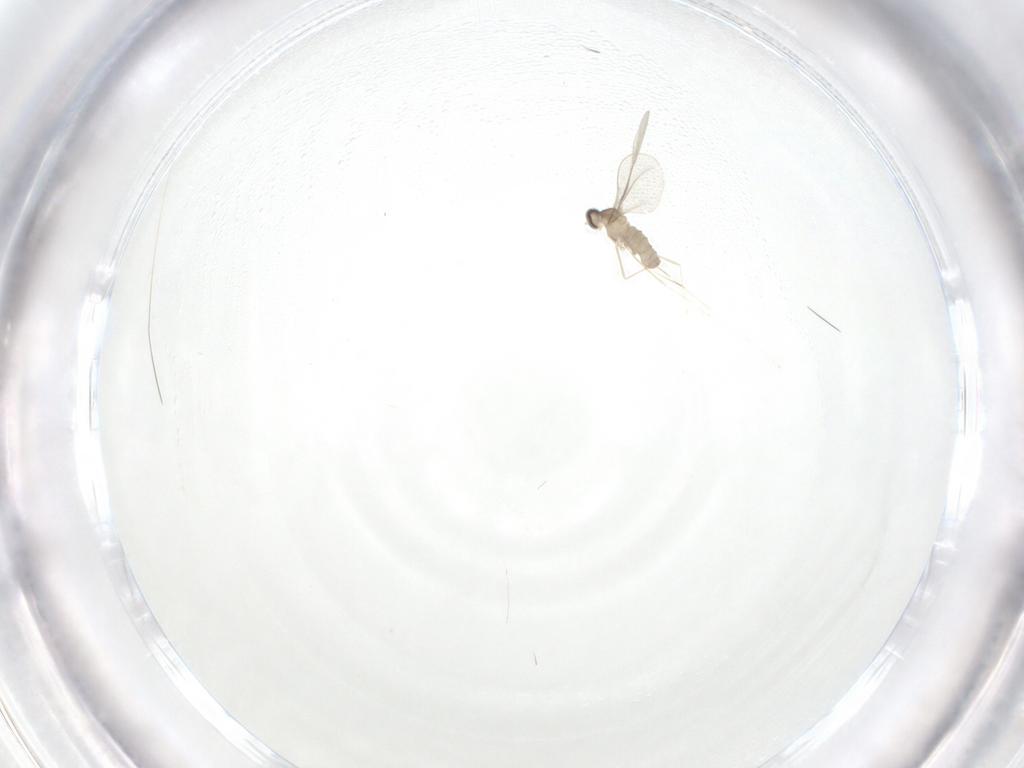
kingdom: Animalia
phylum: Arthropoda
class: Insecta
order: Diptera
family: Cecidomyiidae
